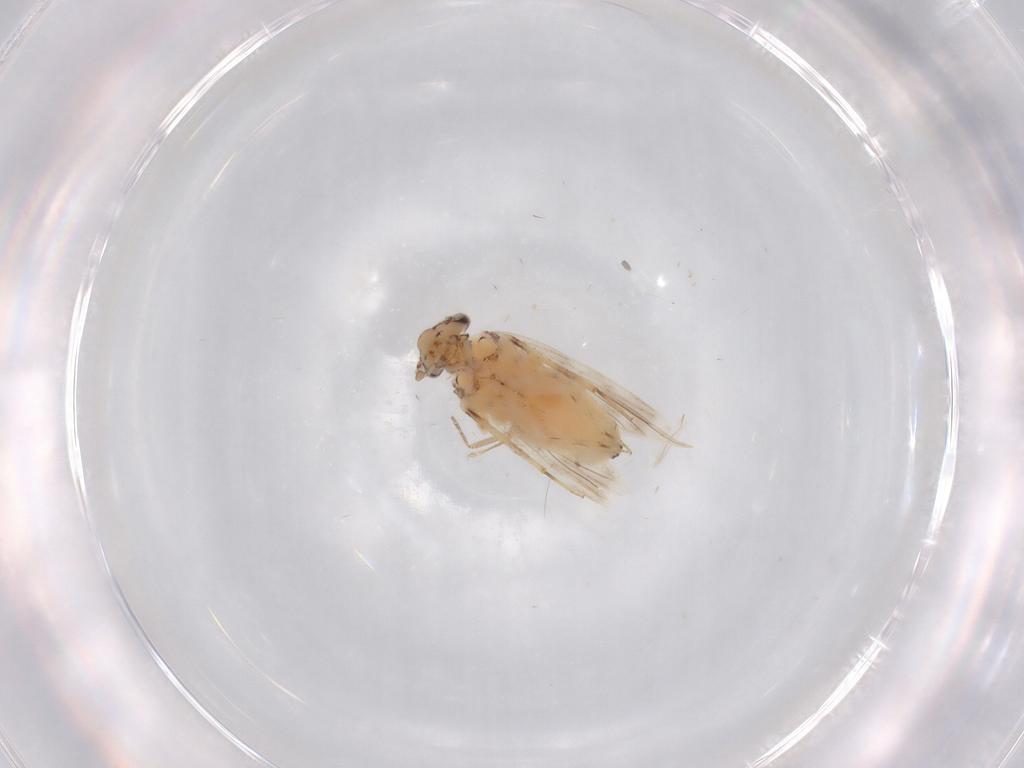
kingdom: Animalia
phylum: Arthropoda
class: Insecta
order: Psocodea
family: Lepidopsocidae
